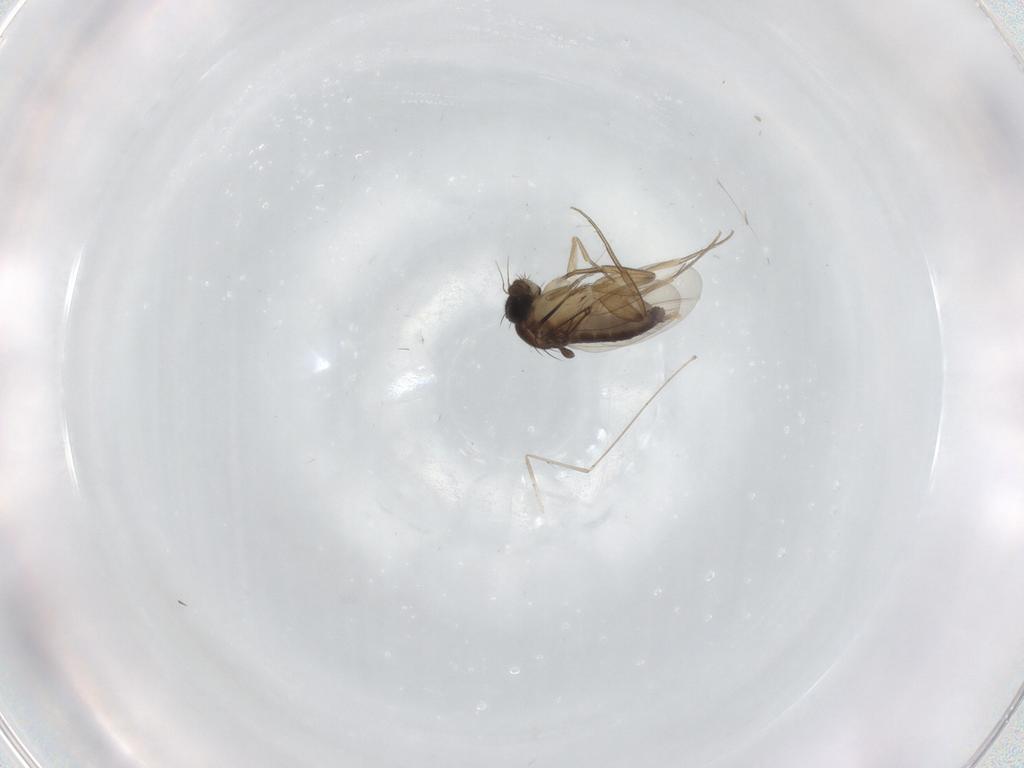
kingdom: Animalia
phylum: Arthropoda
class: Insecta
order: Diptera
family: Phoridae
